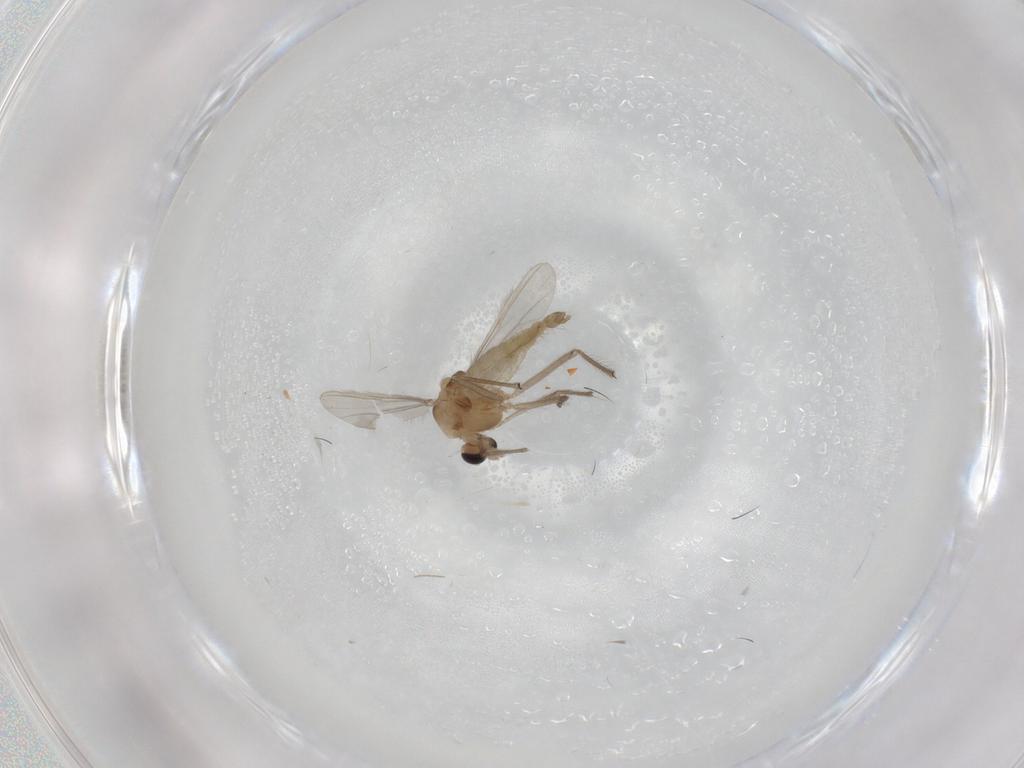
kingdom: Animalia
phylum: Arthropoda
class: Insecta
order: Diptera
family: Chironomidae
